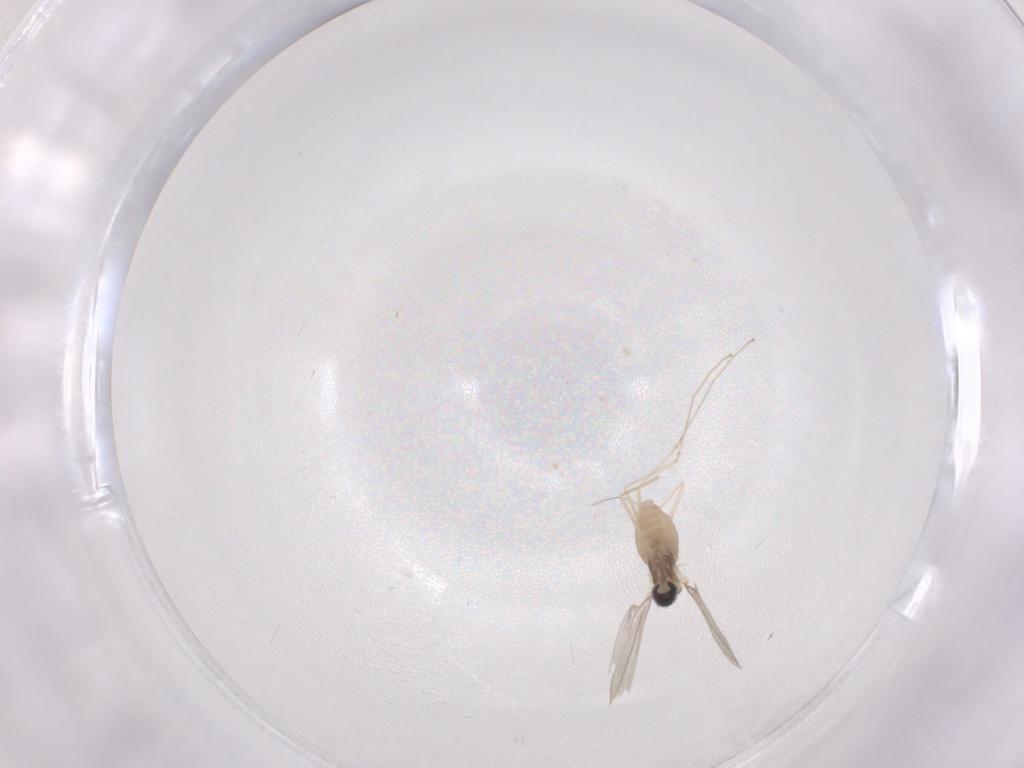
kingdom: Animalia
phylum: Arthropoda
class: Insecta
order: Diptera
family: Cecidomyiidae
